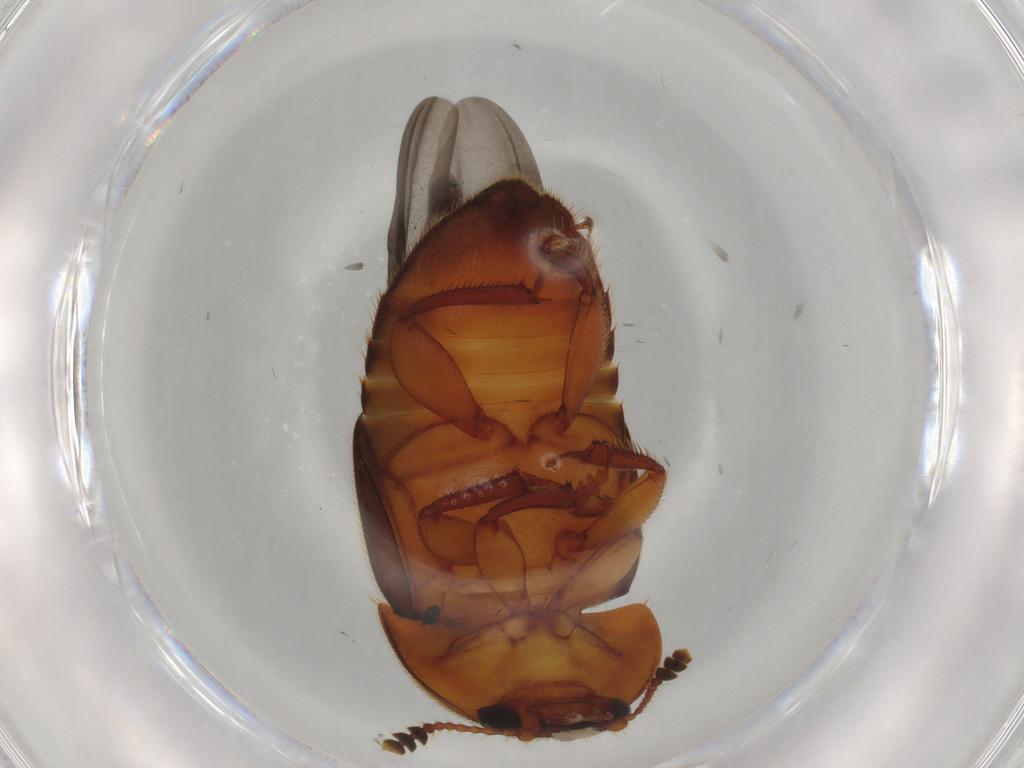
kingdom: Animalia
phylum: Arthropoda
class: Insecta
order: Coleoptera
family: Nitidulidae
